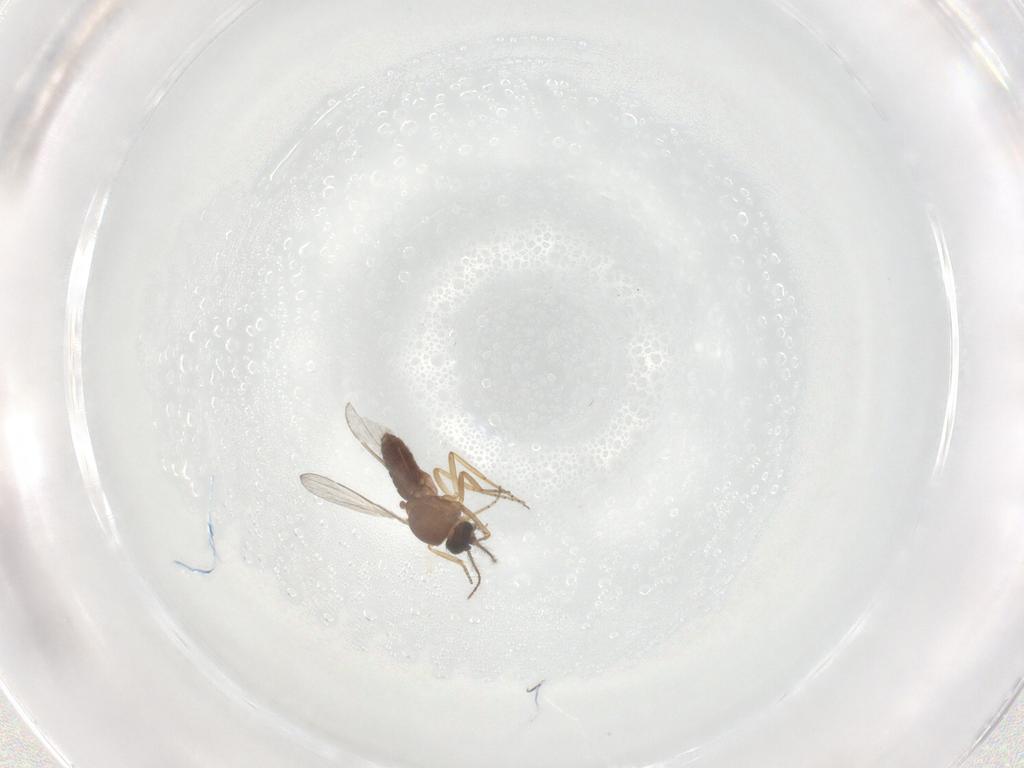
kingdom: Animalia
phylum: Arthropoda
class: Insecta
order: Diptera
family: Ceratopogonidae
